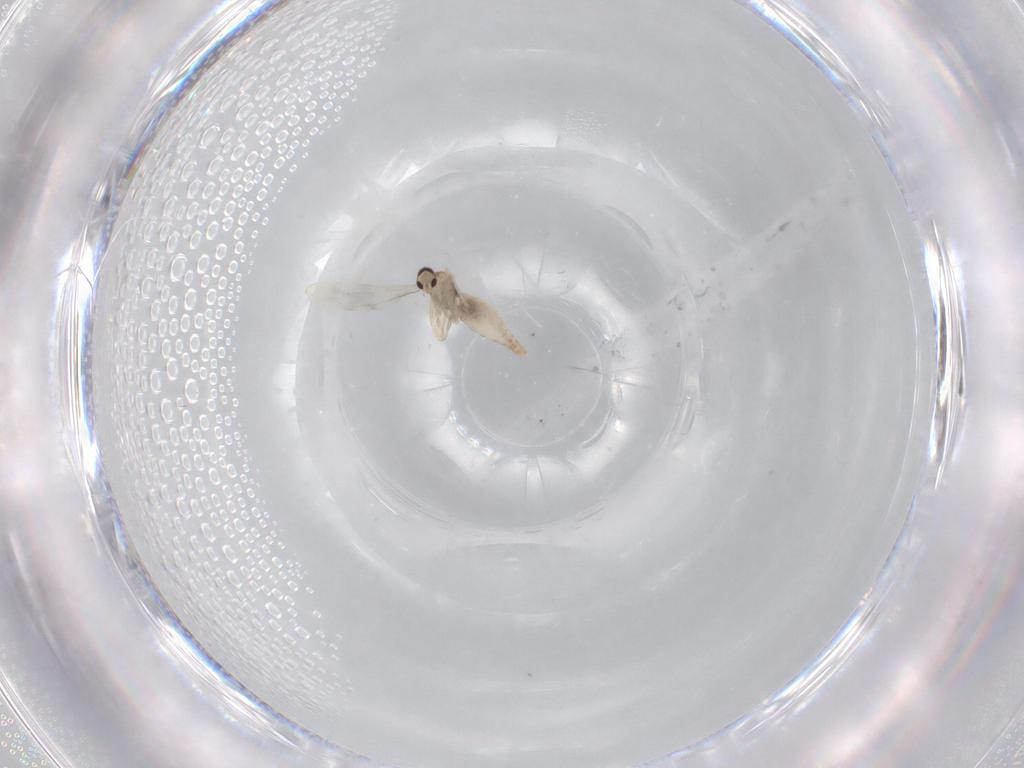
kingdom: Animalia
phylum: Arthropoda
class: Insecta
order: Diptera
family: Cecidomyiidae
